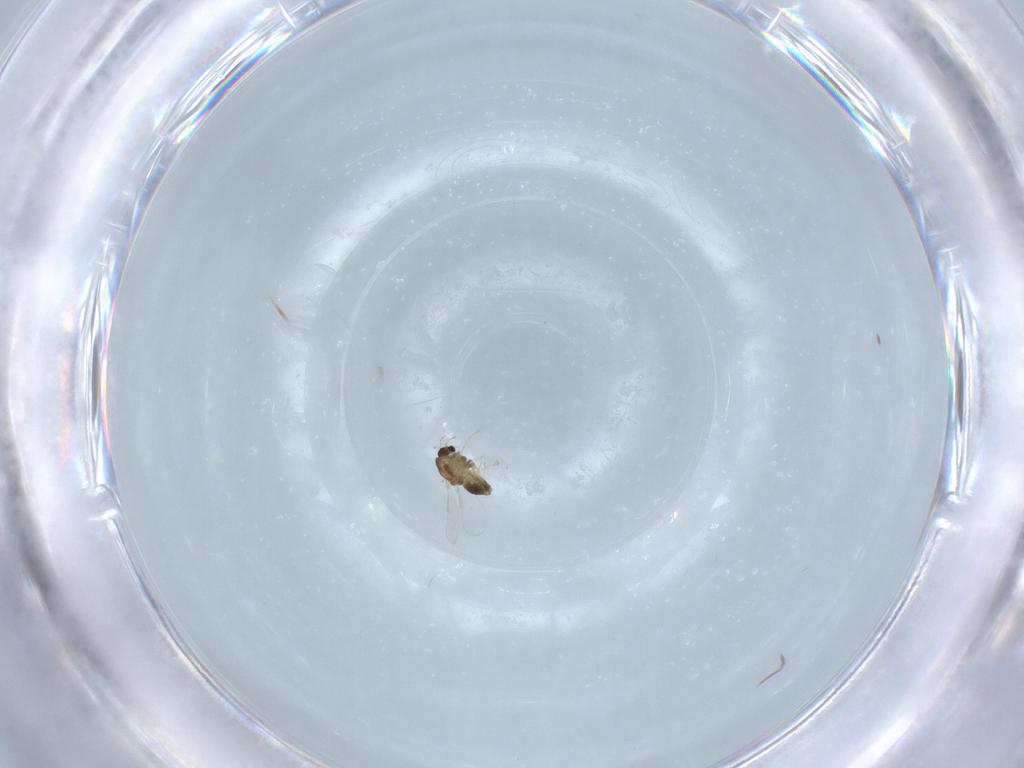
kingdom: Animalia
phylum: Arthropoda
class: Insecta
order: Diptera
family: Chironomidae
